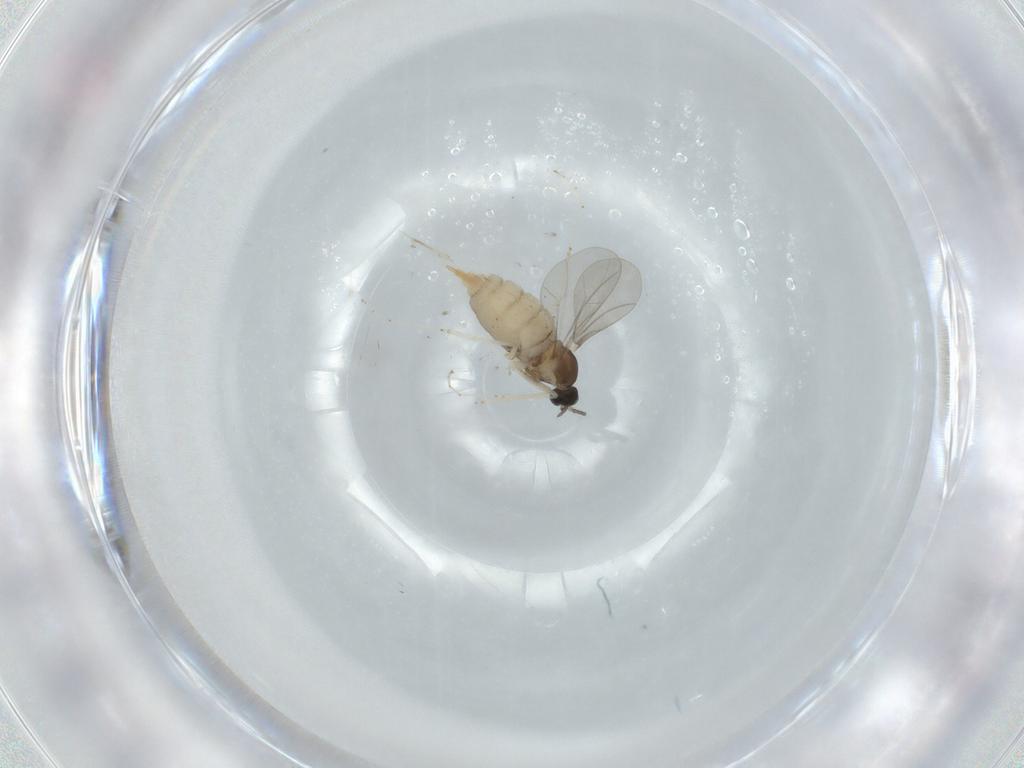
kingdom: Animalia
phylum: Arthropoda
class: Insecta
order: Diptera
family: Cecidomyiidae
